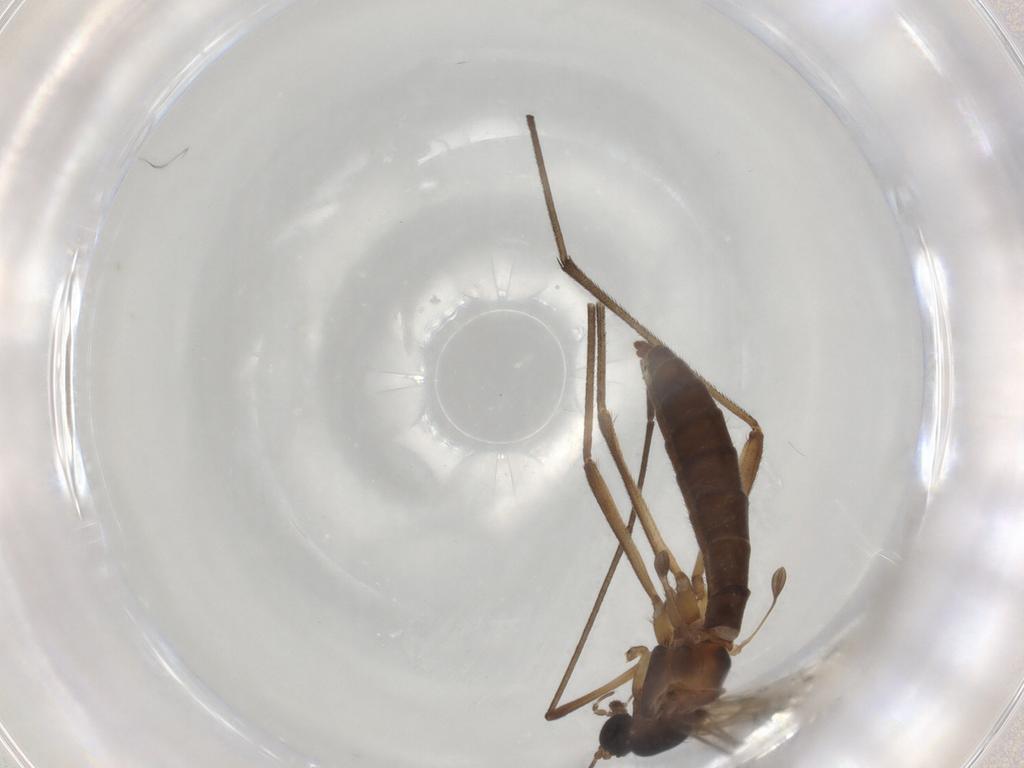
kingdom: Animalia
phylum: Arthropoda
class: Insecta
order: Diptera
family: Bolitophilidae
